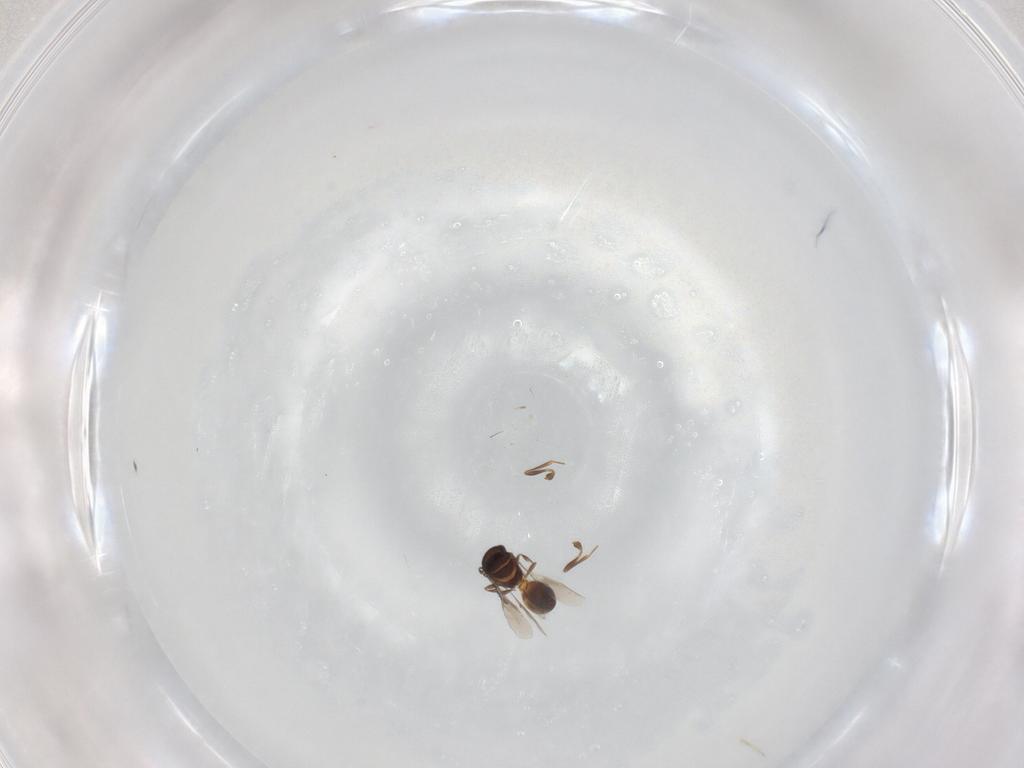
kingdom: Animalia
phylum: Arthropoda
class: Insecta
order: Hymenoptera
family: Scelionidae
